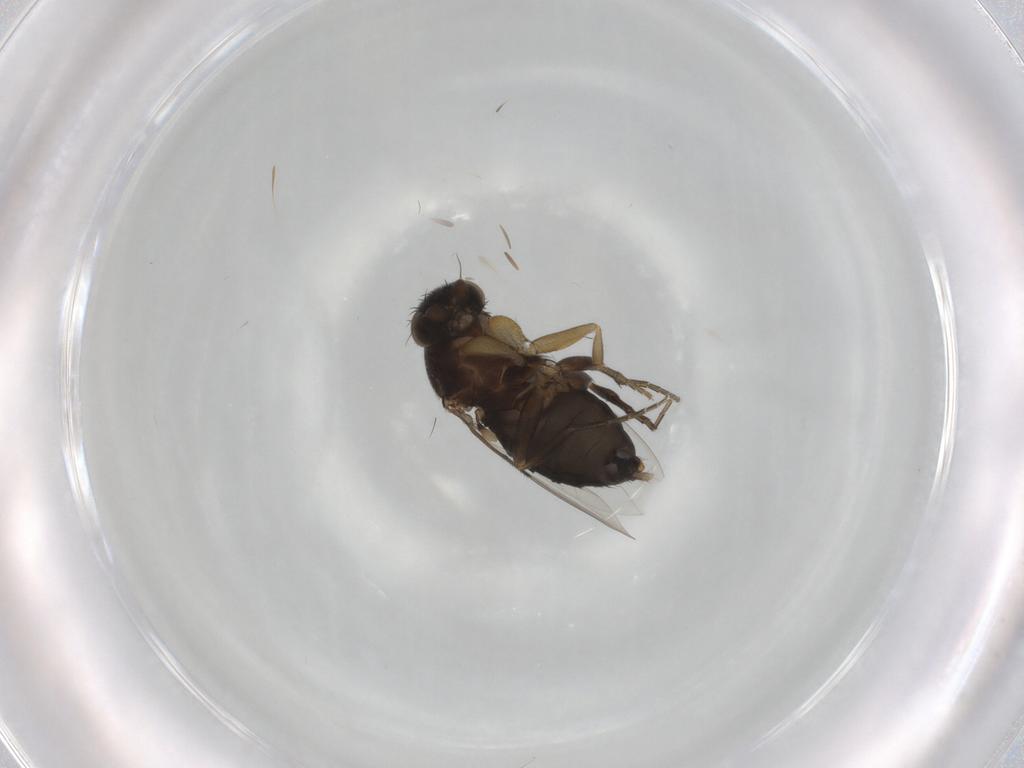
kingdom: Animalia
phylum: Arthropoda
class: Insecta
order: Diptera
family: Phoridae
